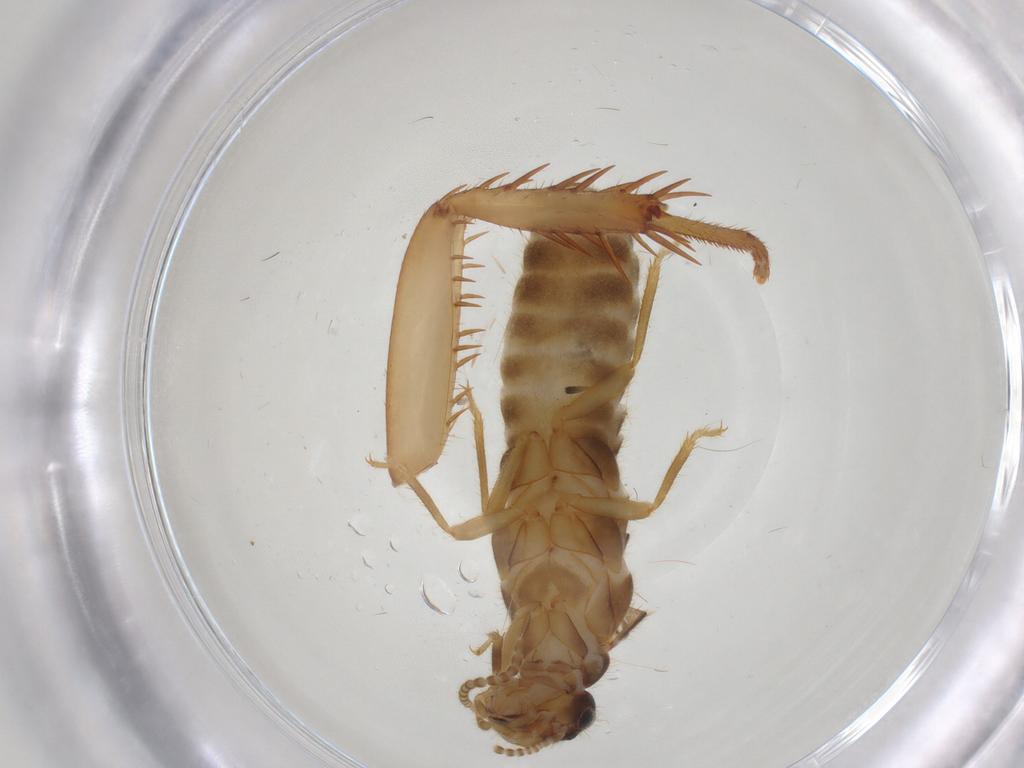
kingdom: Animalia
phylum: Arthropoda
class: Insecta
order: Blattodea
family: Ectobiidae
